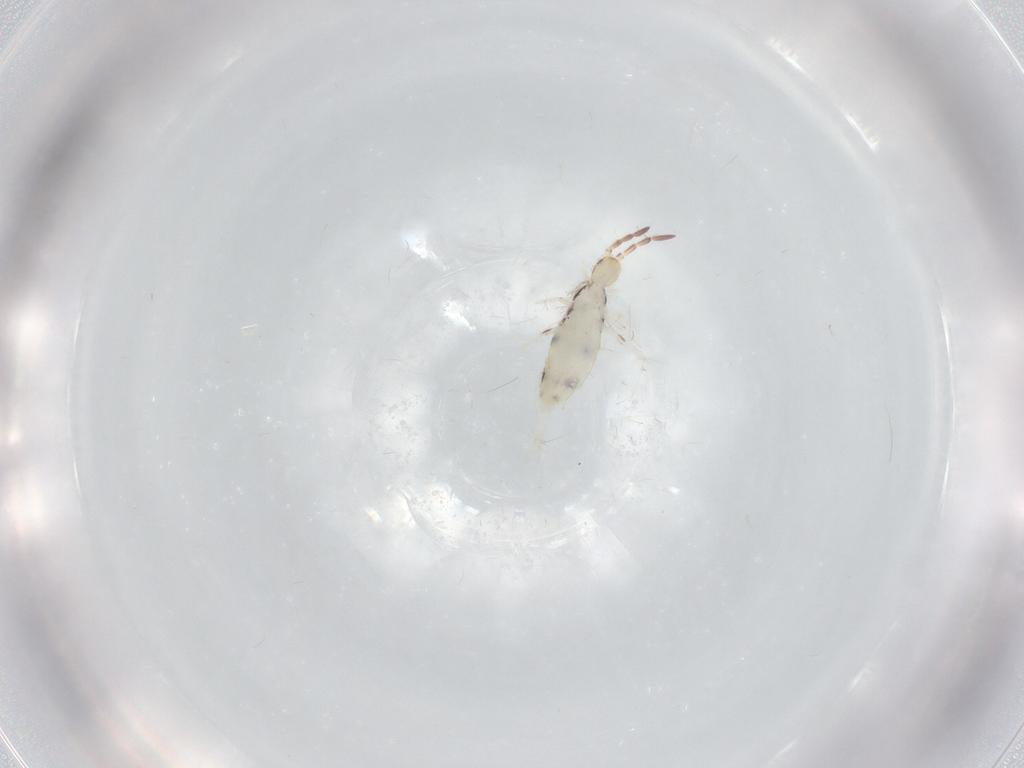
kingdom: Animalia
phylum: Arthropoda
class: Collembola
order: Entomobryomorpha
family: Entomobryidae
